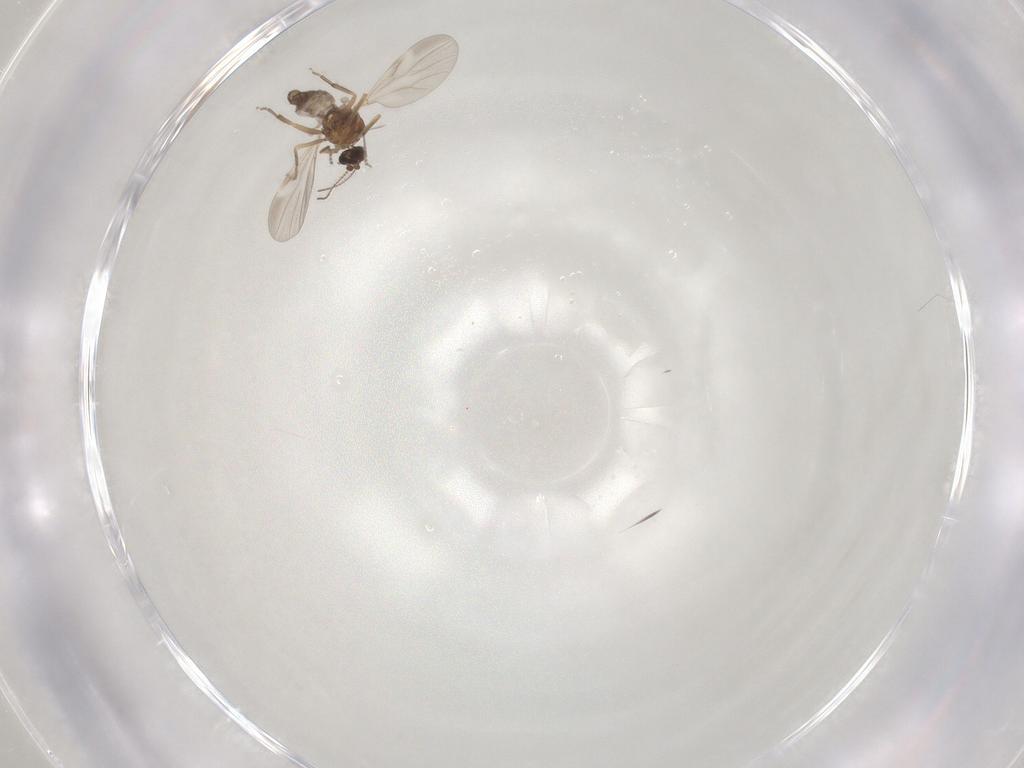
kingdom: Animalia
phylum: Arthropoda
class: Insecta
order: Diptera
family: Ceratopogonidae
